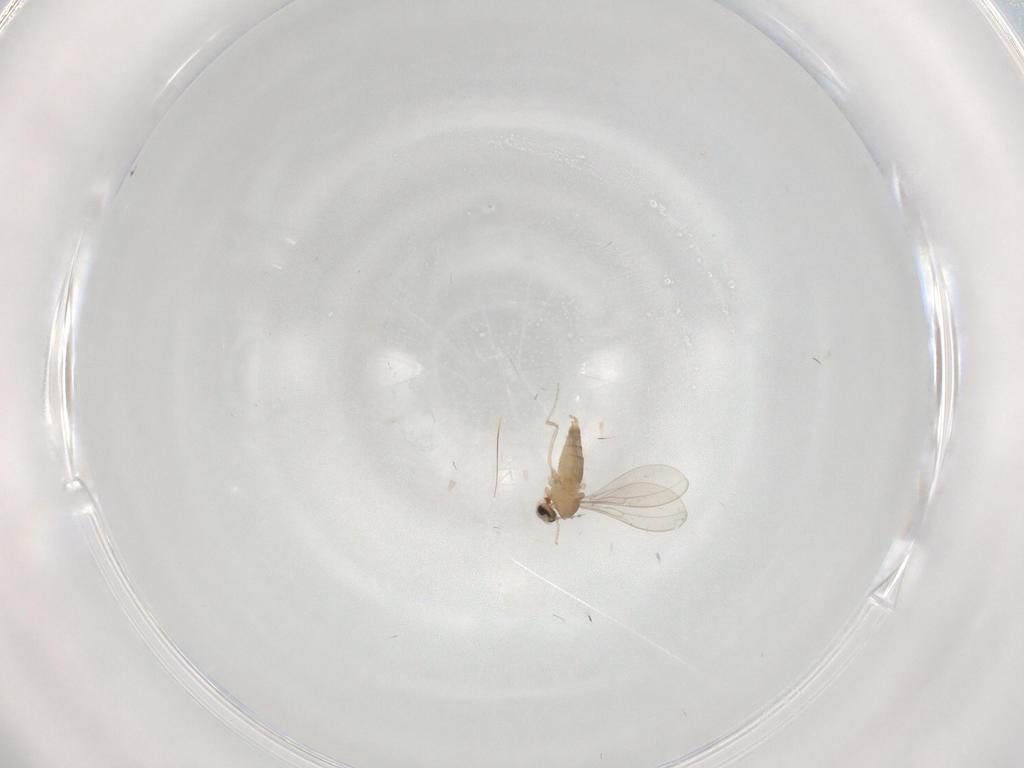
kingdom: Animalia
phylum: Arthropoda
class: Insecta
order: Diptera
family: Cecidomyiidae
